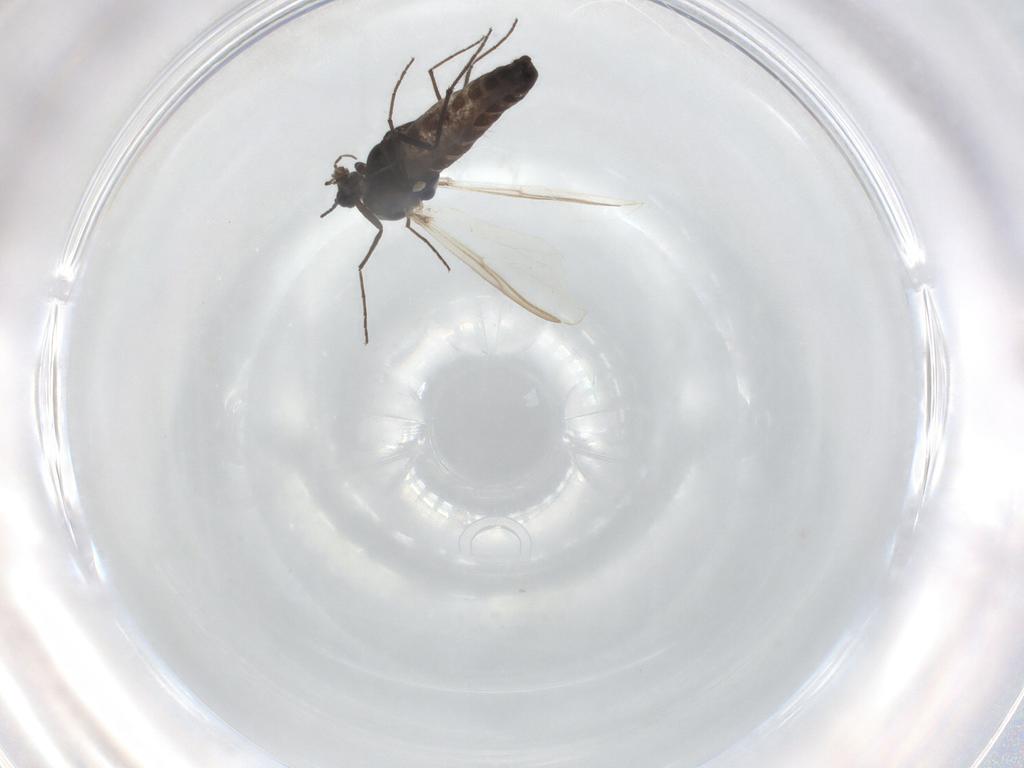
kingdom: Animalia
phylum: Arthropoda
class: Insecta
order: Diptera
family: Chironomidae
